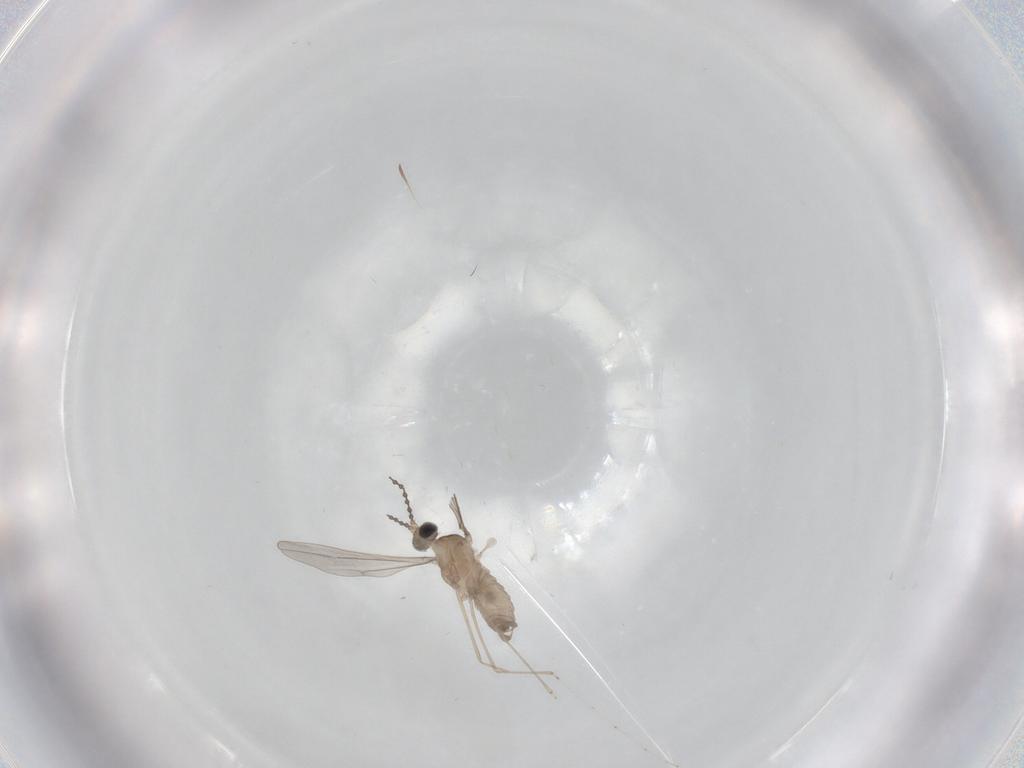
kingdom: Animalia
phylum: Arthropoda
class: Insecta
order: Diptera
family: Cecidomyiidae
